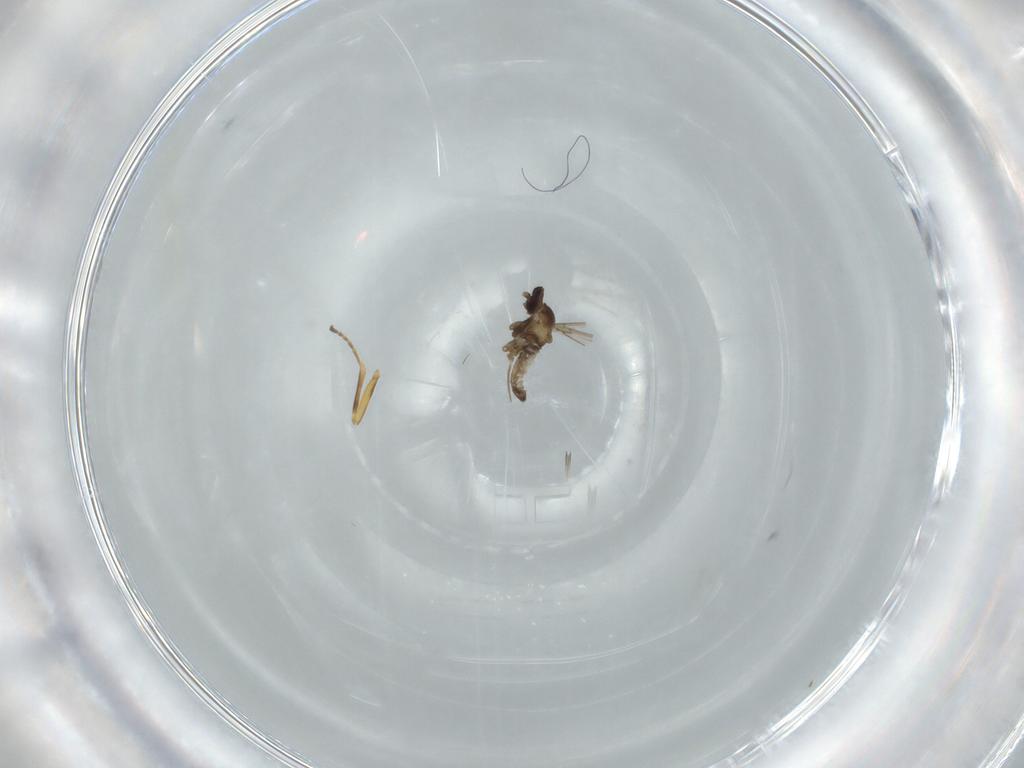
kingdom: Animalia
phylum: Arthropoda
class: Insecta
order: Diptera
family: Cecidomyiidae
